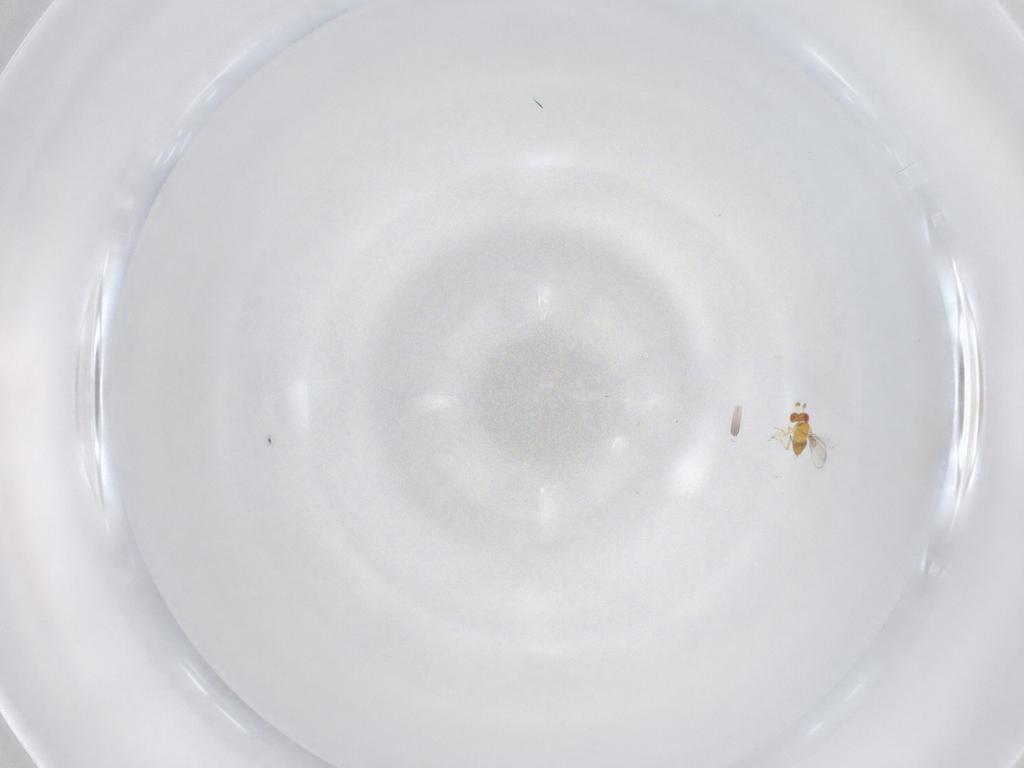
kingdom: Animalia
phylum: Arthropoda
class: Insecta
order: Hymenoptera
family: Trichogrammatidae
